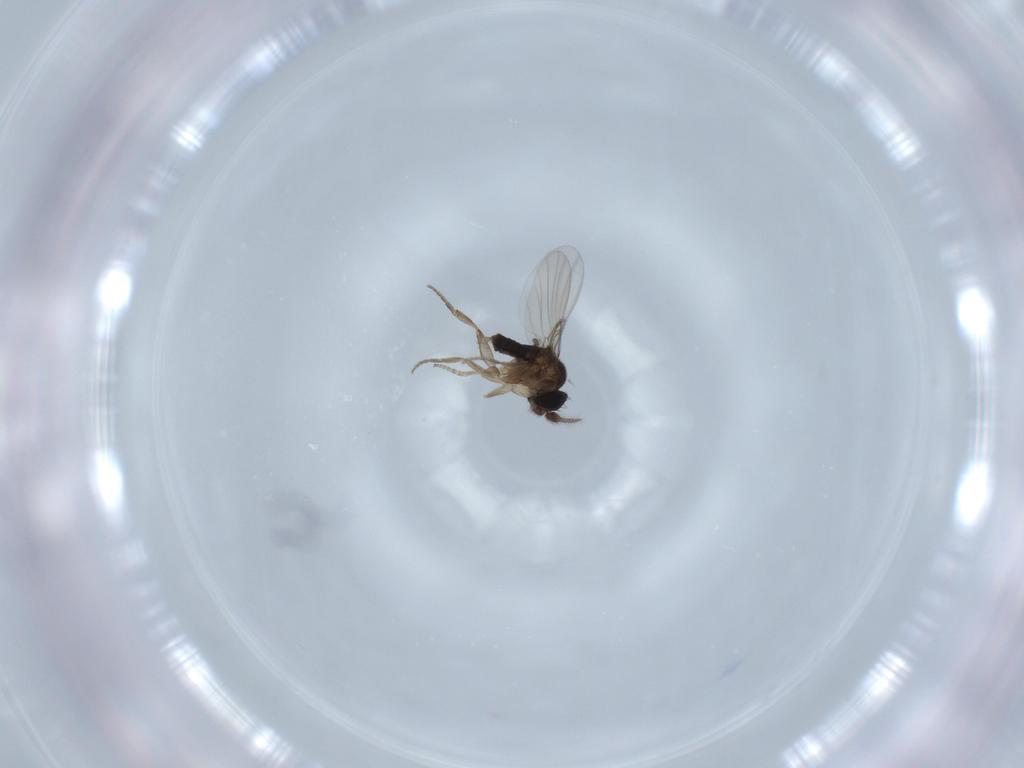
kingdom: Animalia
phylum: Arthropoda
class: Insecta
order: Diptera
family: Phoridae
